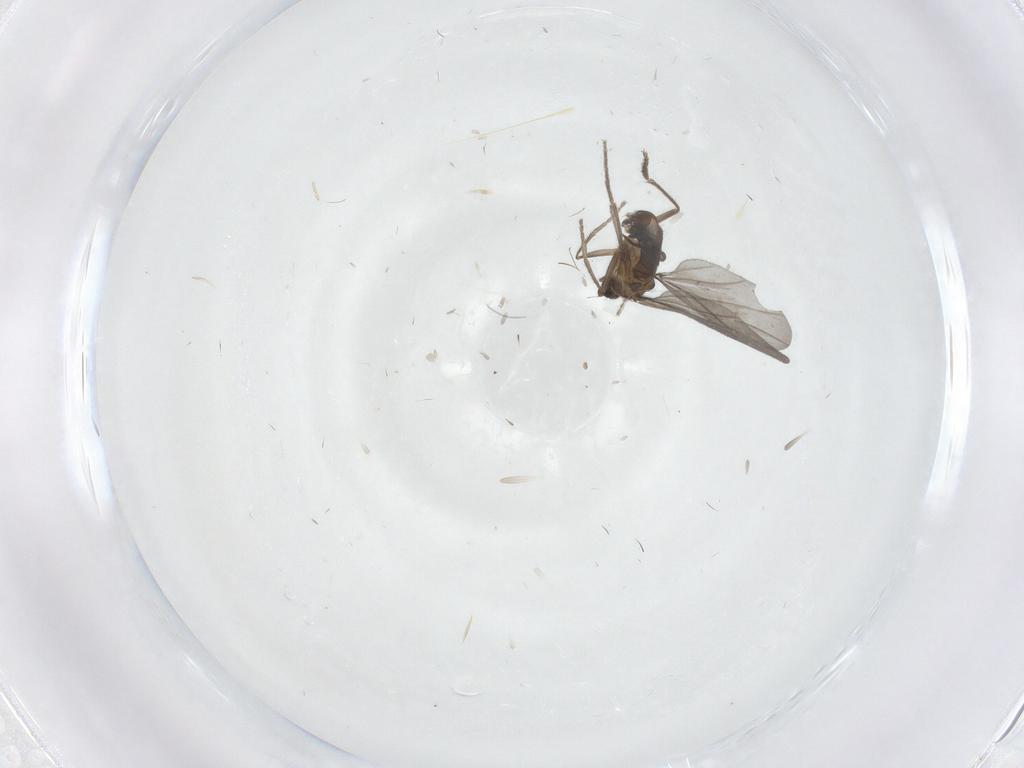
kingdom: Animalia
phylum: Arthropoda
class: Insecta
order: Diptera
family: Phoridae
